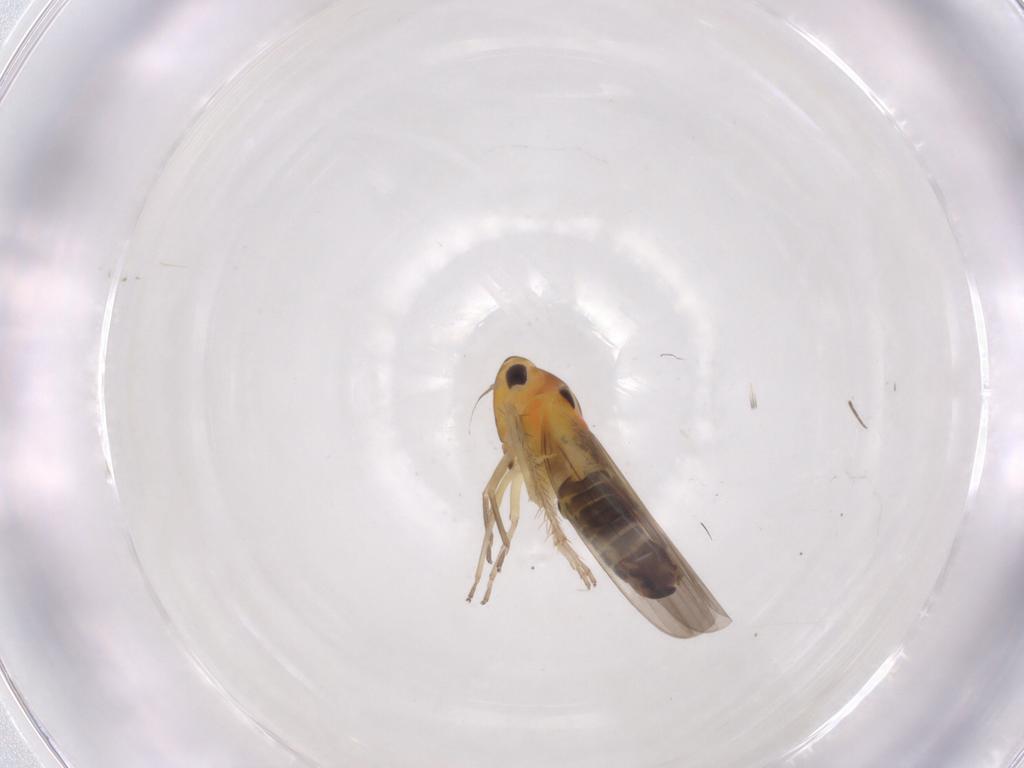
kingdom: Animalia
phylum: Arthropoda
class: Insecta
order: Hemiptera
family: Cicadellidae
